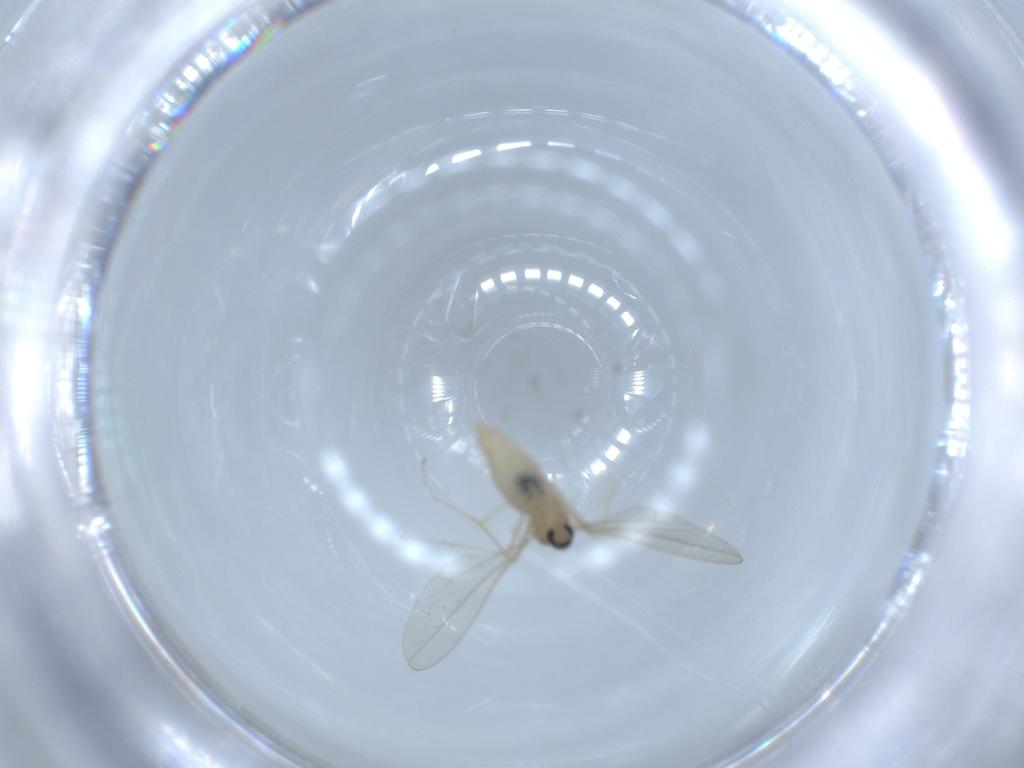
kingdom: Animalia
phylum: Arthropoda
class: Insecta
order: Diptera
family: Cecidomyiidae
